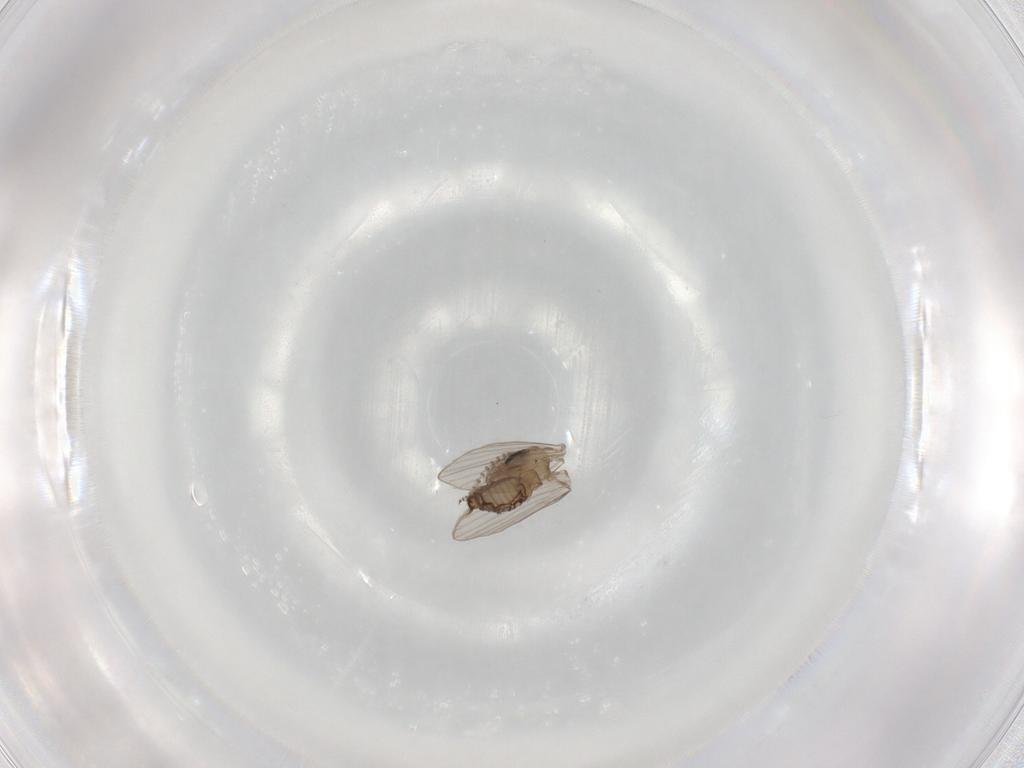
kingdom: Animalia
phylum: Arthropoda
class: Insecta
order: Diptera
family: Psychodidae
